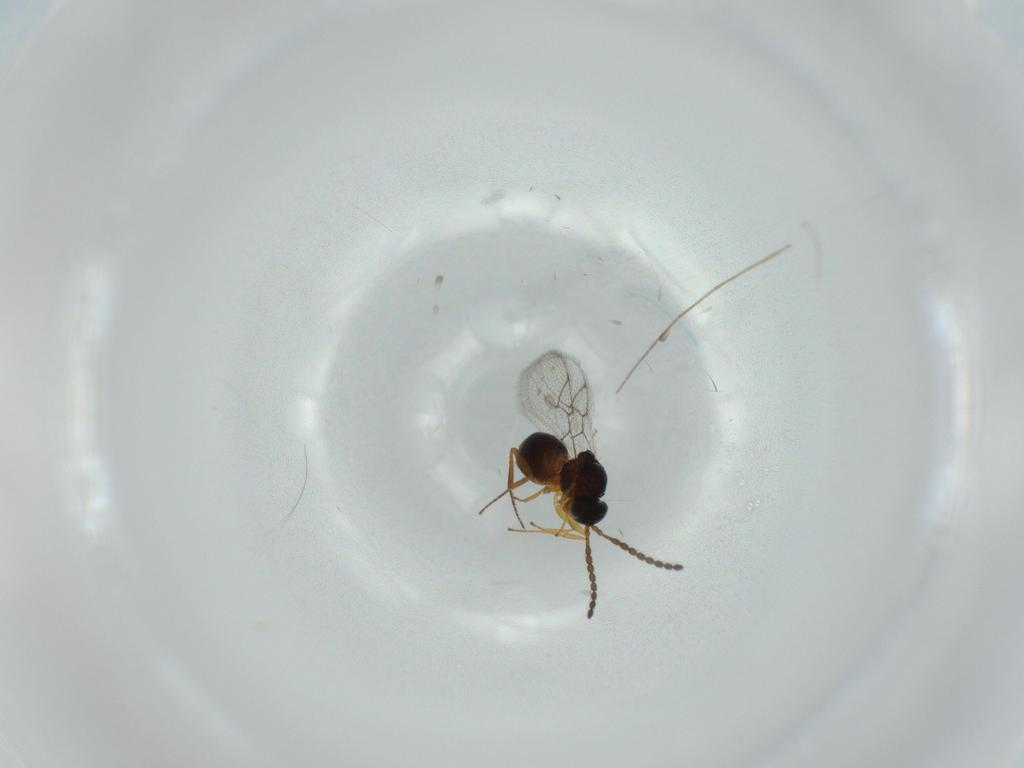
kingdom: Animalia
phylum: Arthropoda
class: Insecta
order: Hymenoptera
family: Figitidae
